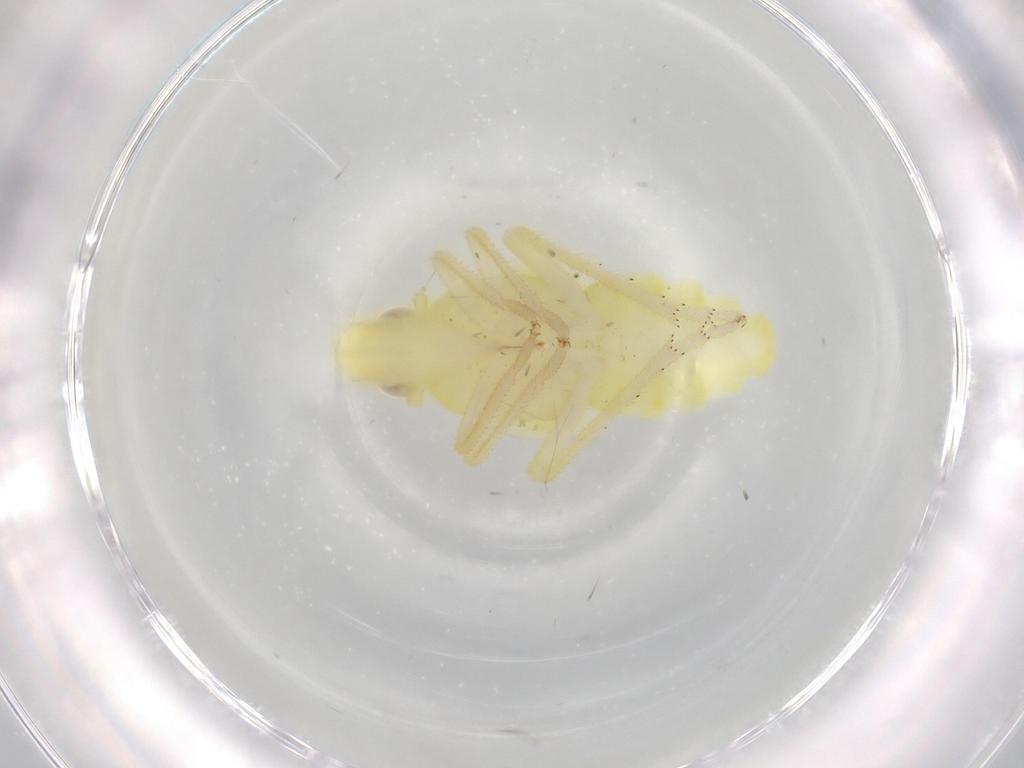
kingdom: Animalia
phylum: Arthropoda
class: Insecta
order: Hemiptera
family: Fulgoroidea_incertae_sedis
